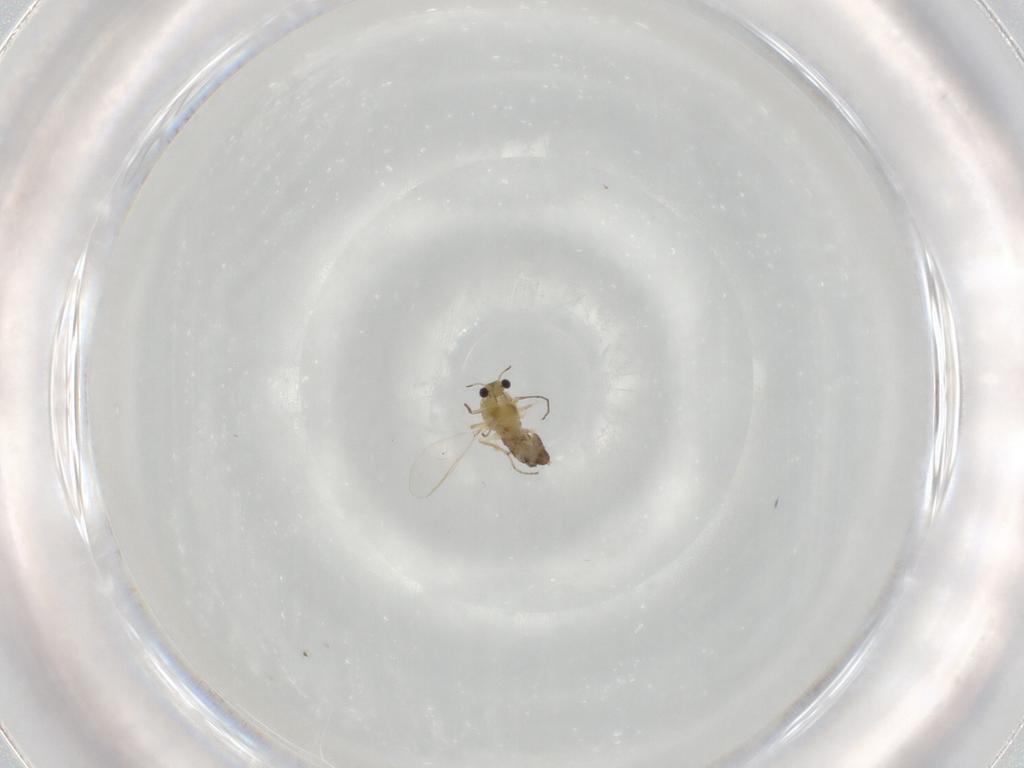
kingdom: Animalia
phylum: Arthropoda
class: Insecta
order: Diptera
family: Chironomidae
